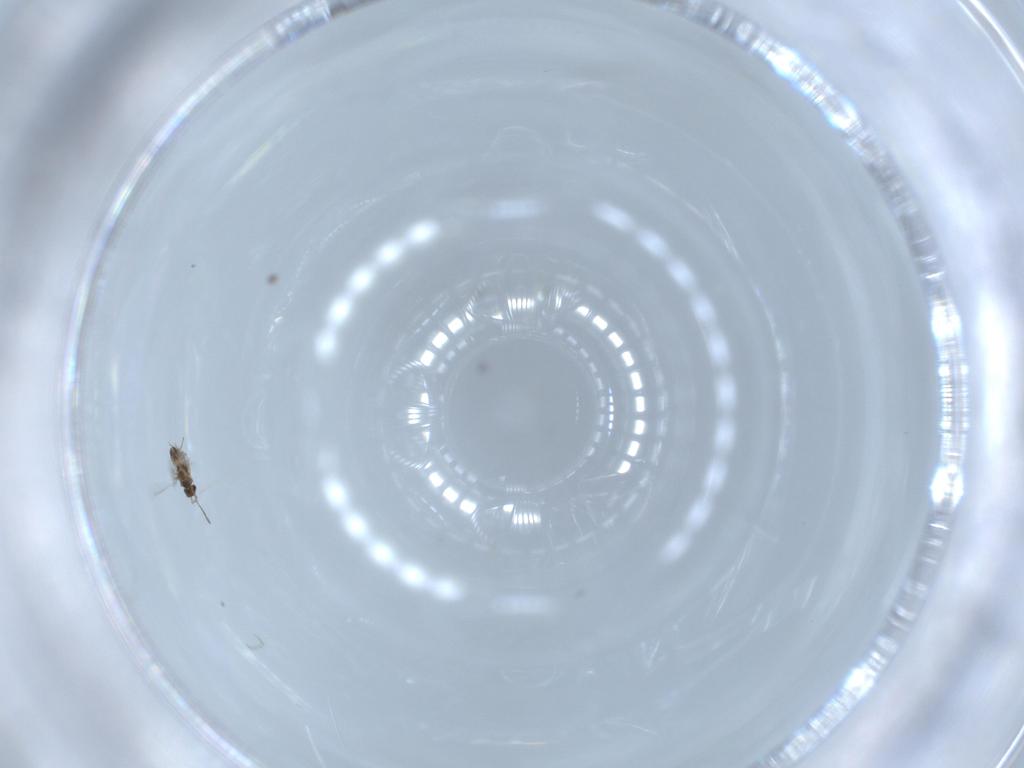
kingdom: Animalia
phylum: Arthropoda
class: Insecta
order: Hymenoptera
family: Mymaridae
